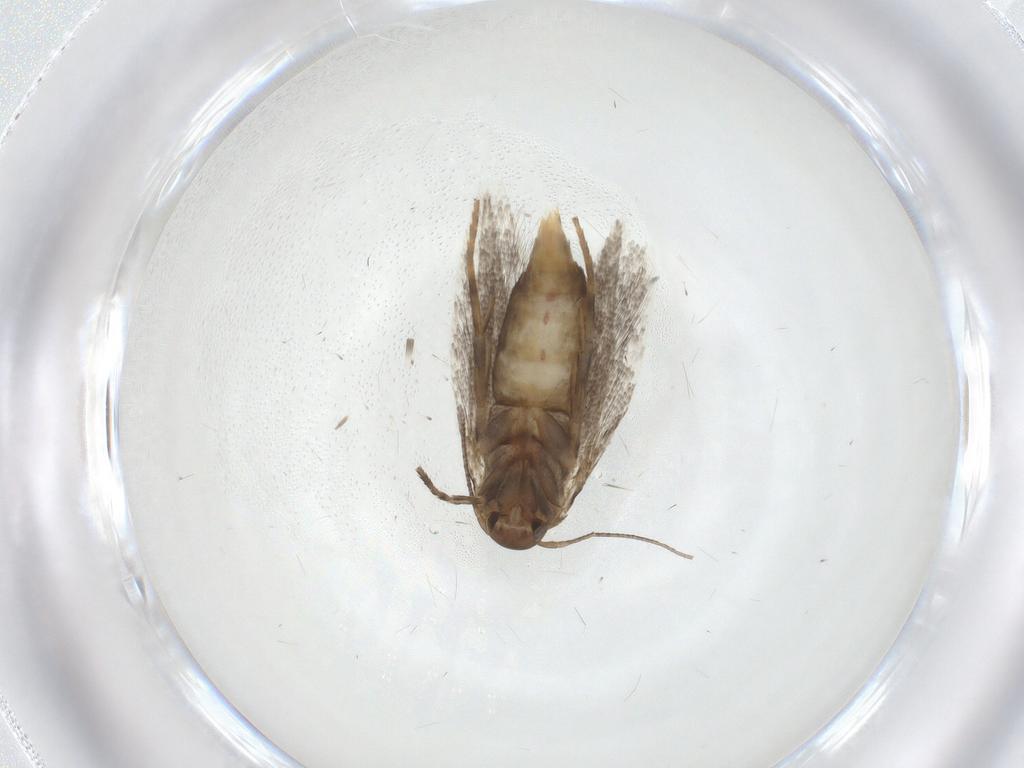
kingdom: Animalia
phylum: Arthropoda
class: Insecta
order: Lepidoptera
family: Elachistidae
